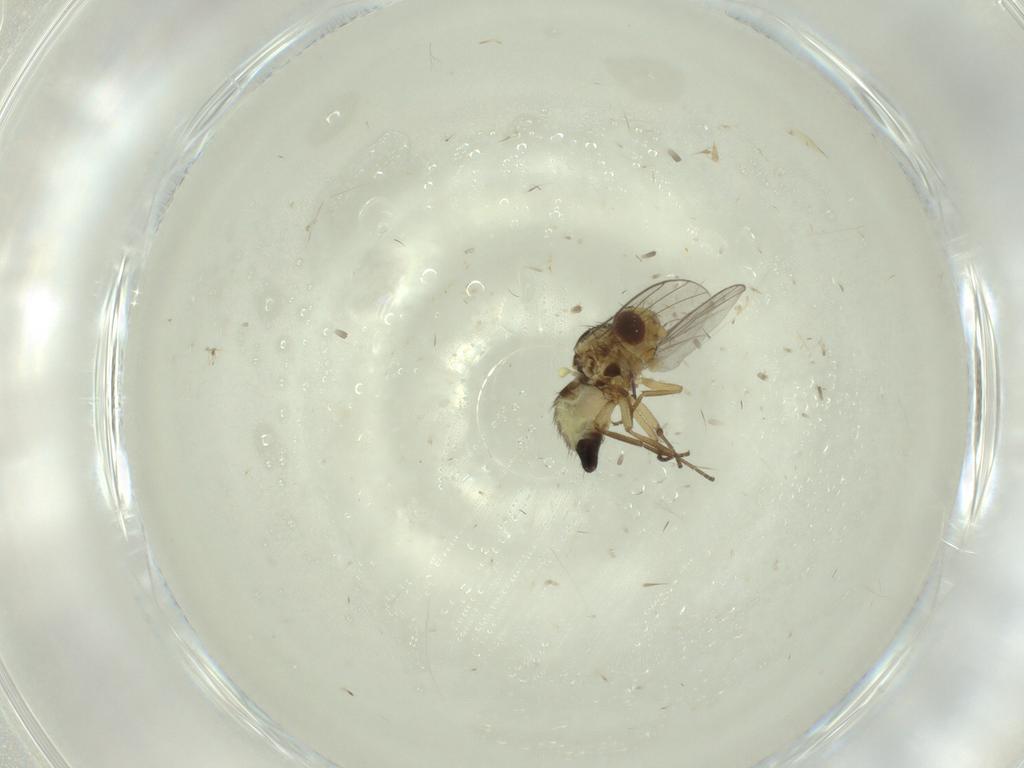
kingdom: Animalia
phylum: Arthropoda
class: Insecta
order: Diptera
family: Agromyzidae
